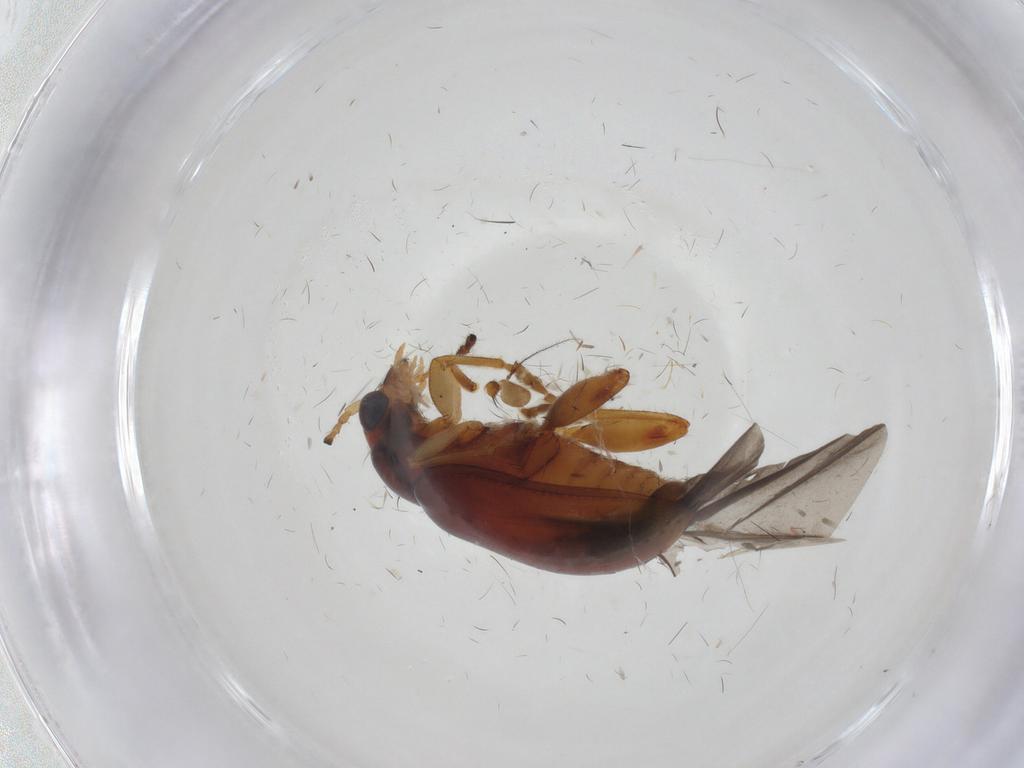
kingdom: Animalia
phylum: Arthropoda
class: Insecta
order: Coleoptera
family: Chrysomelidae
